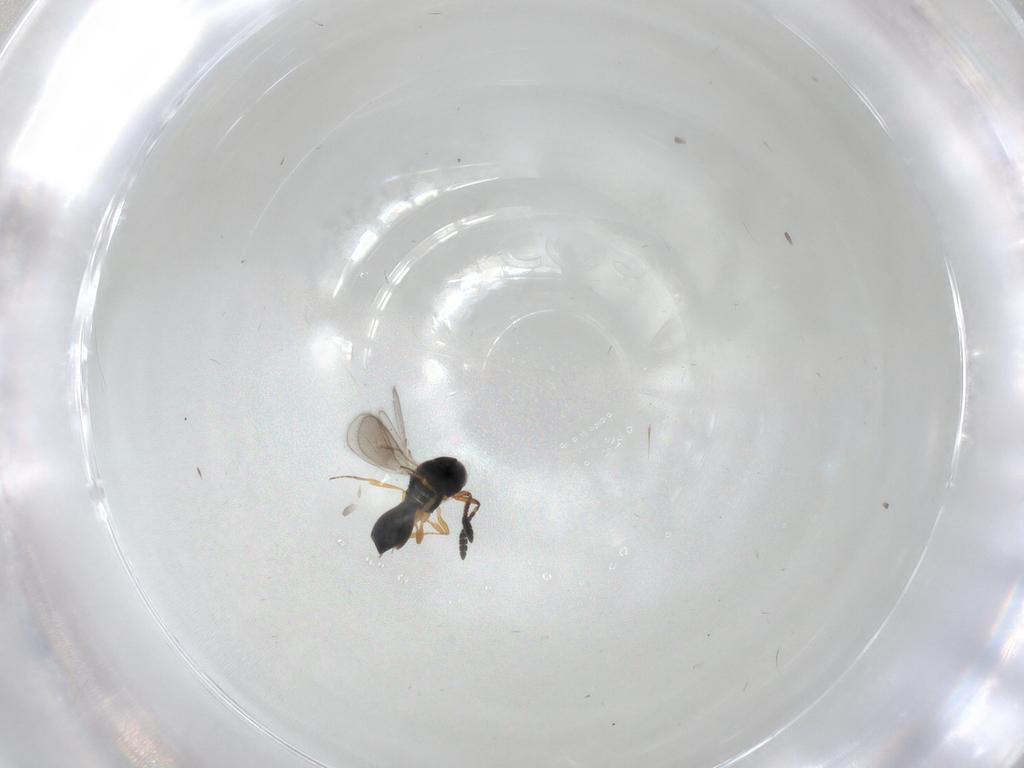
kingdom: Animalia
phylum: Arthropoda
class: Insecta
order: Hymenoptera
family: Scelionidae
